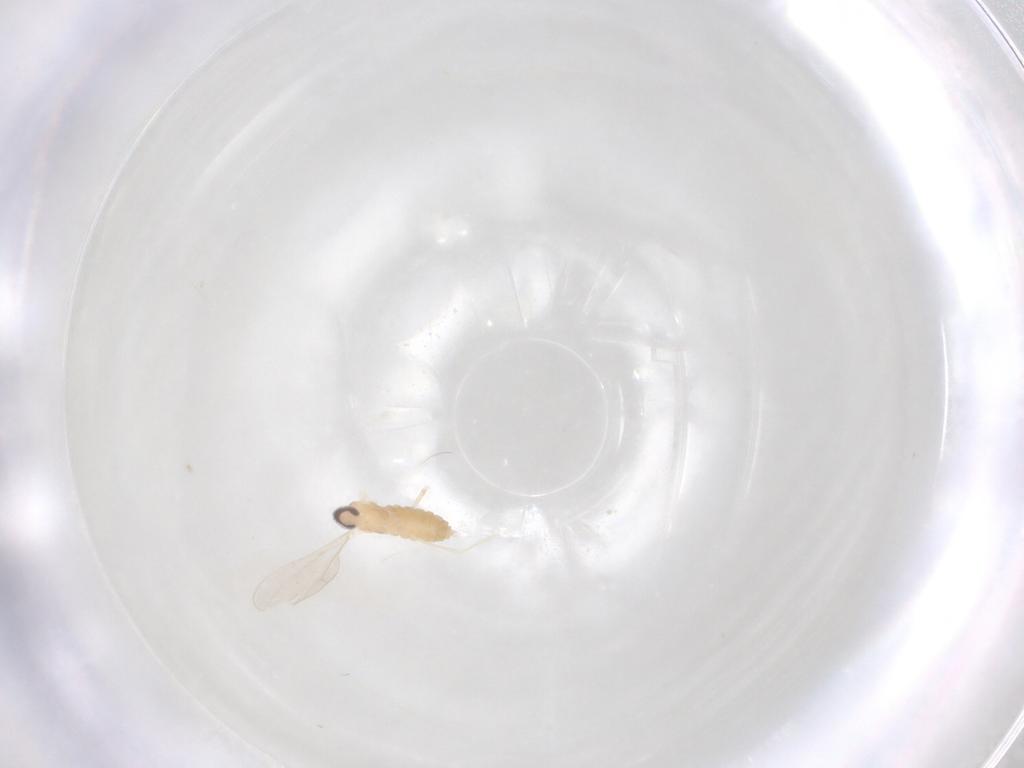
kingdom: Animalia
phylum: Arthropoda
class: Insecta
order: Diptera
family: Cecidomyiidae
